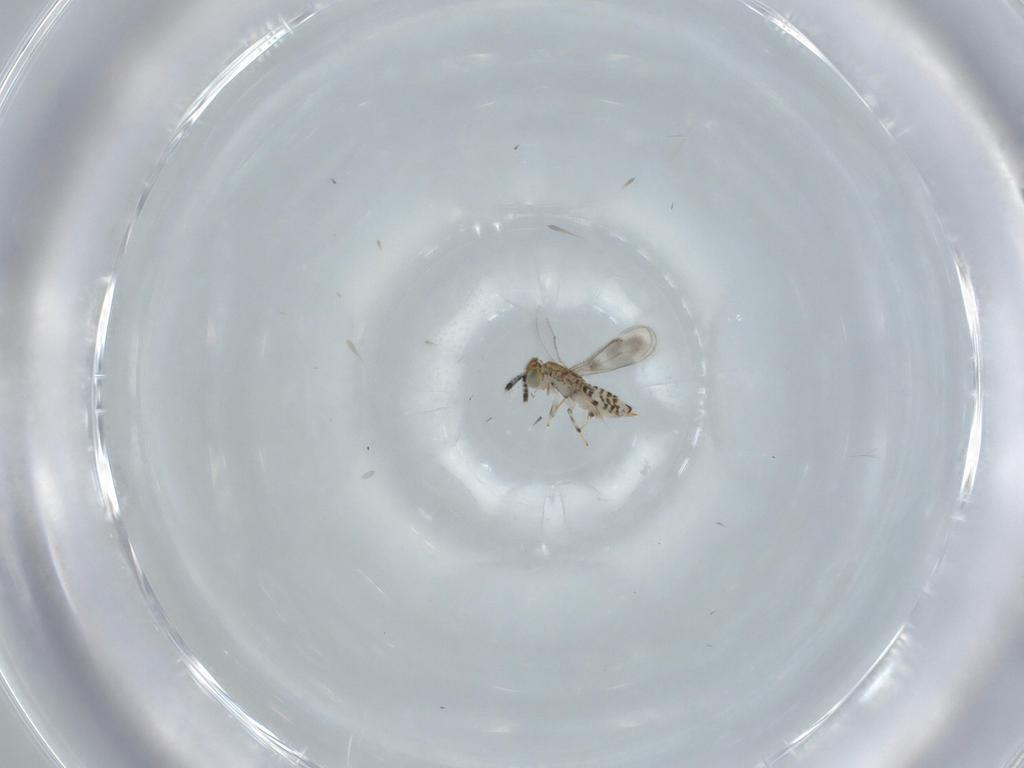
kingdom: Animalia
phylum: Arthropoda
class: Insecta
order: Hymenoptera
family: Aphelinidae
